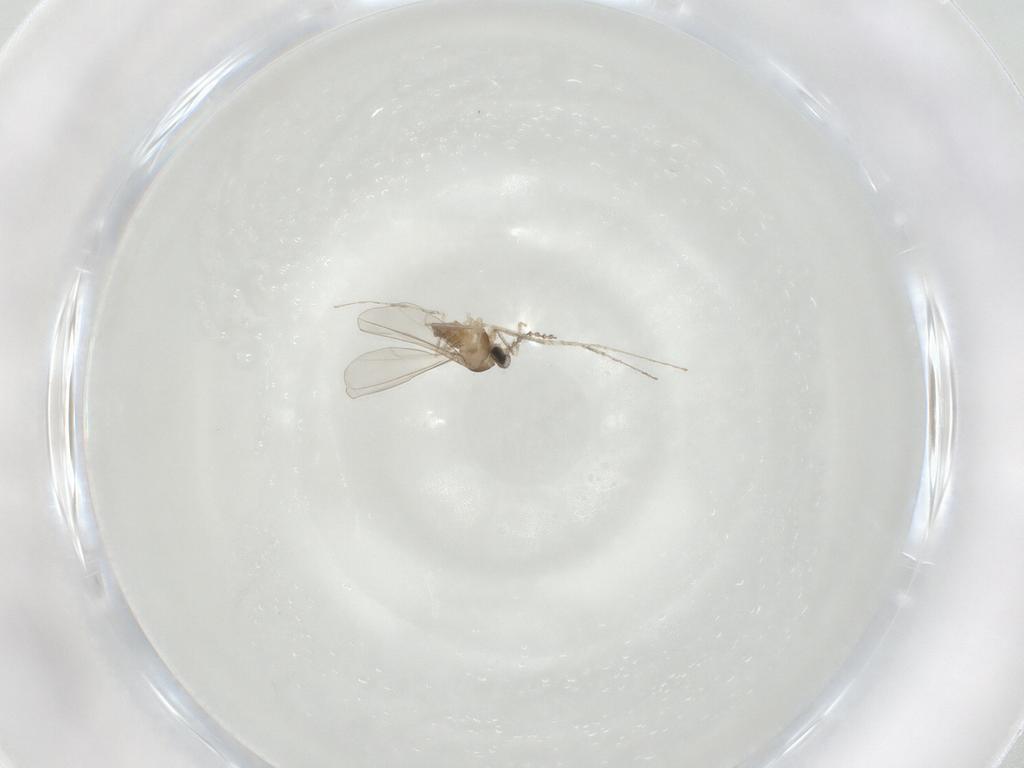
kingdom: Animalia
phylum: Arthropoda
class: Insecta
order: Diptera
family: Cecidomyiidae
